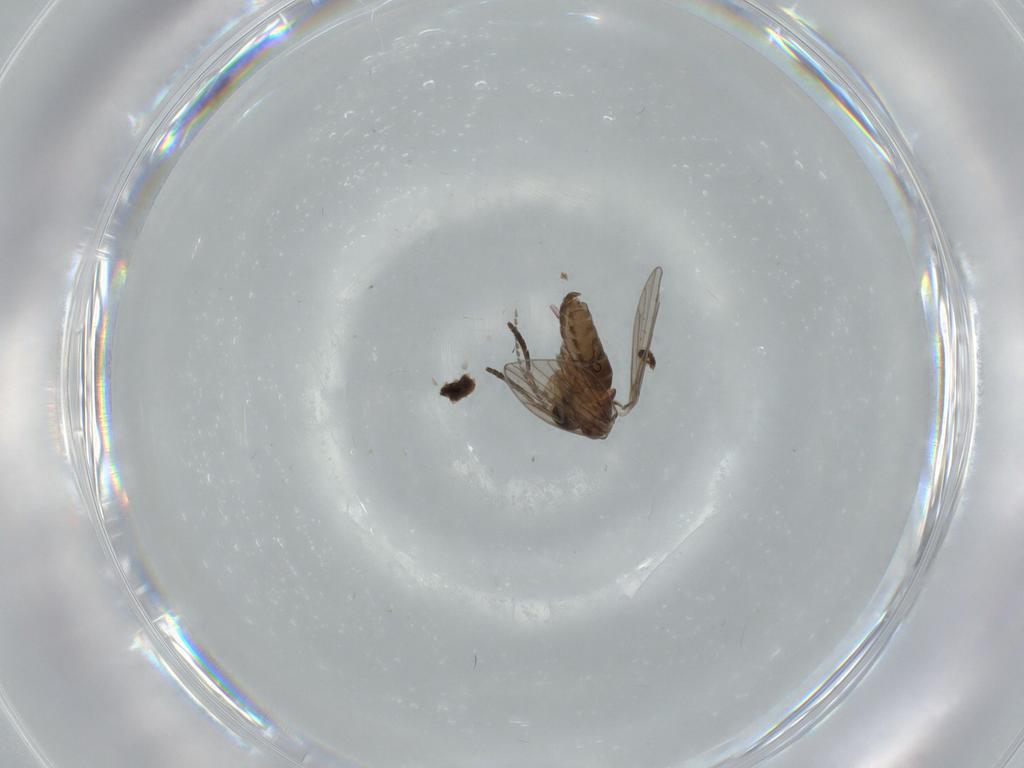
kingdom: Animalia
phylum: Arthropoda
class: Insecta
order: Diptera
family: Psychodidae
